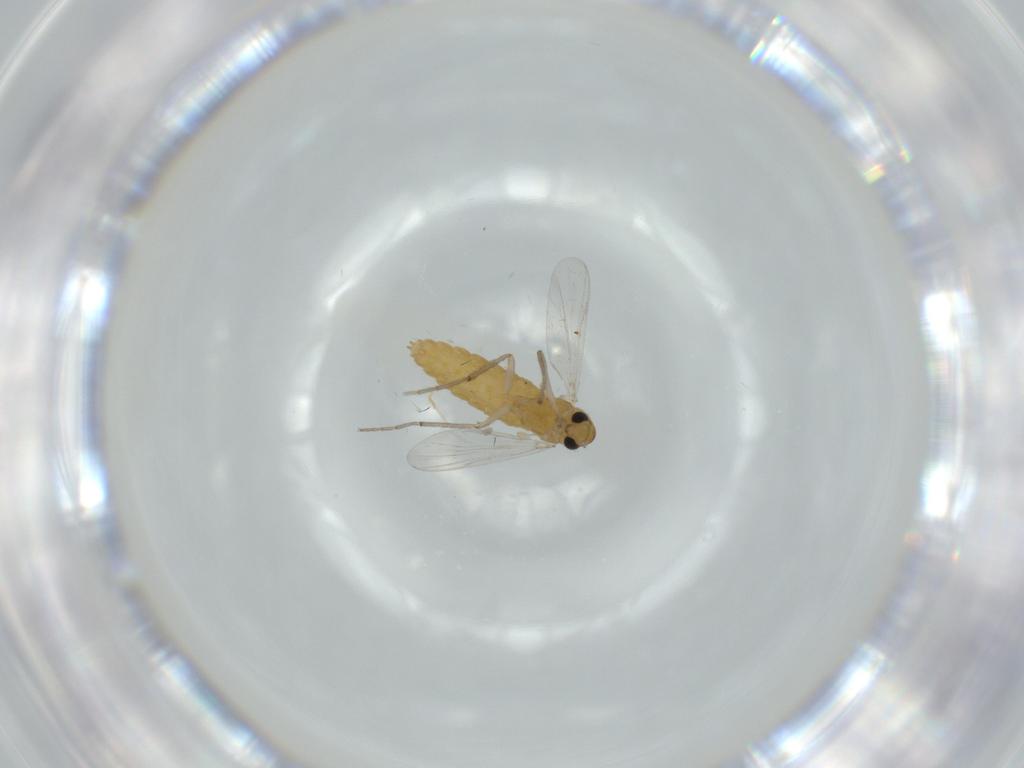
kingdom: Animalia
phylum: Arthropoda
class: Insecta
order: Diptera
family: Chironomidae
